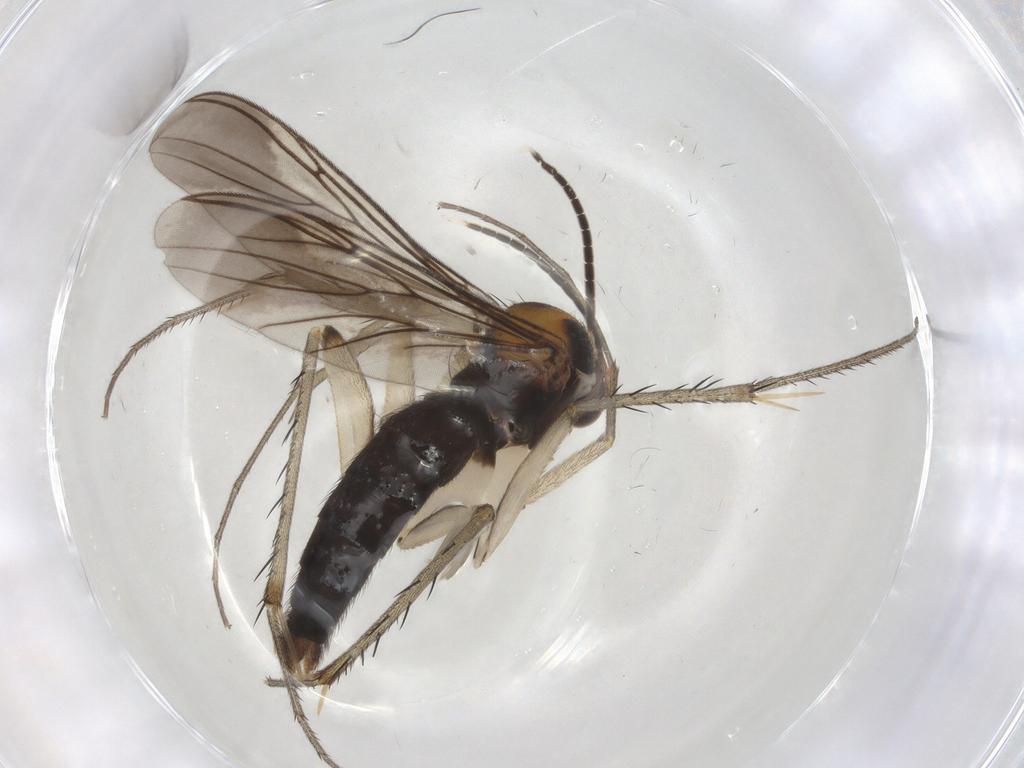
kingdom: Animalia
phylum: Arthropoda
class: Insecta
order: Diptera
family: Mycetophilidae
